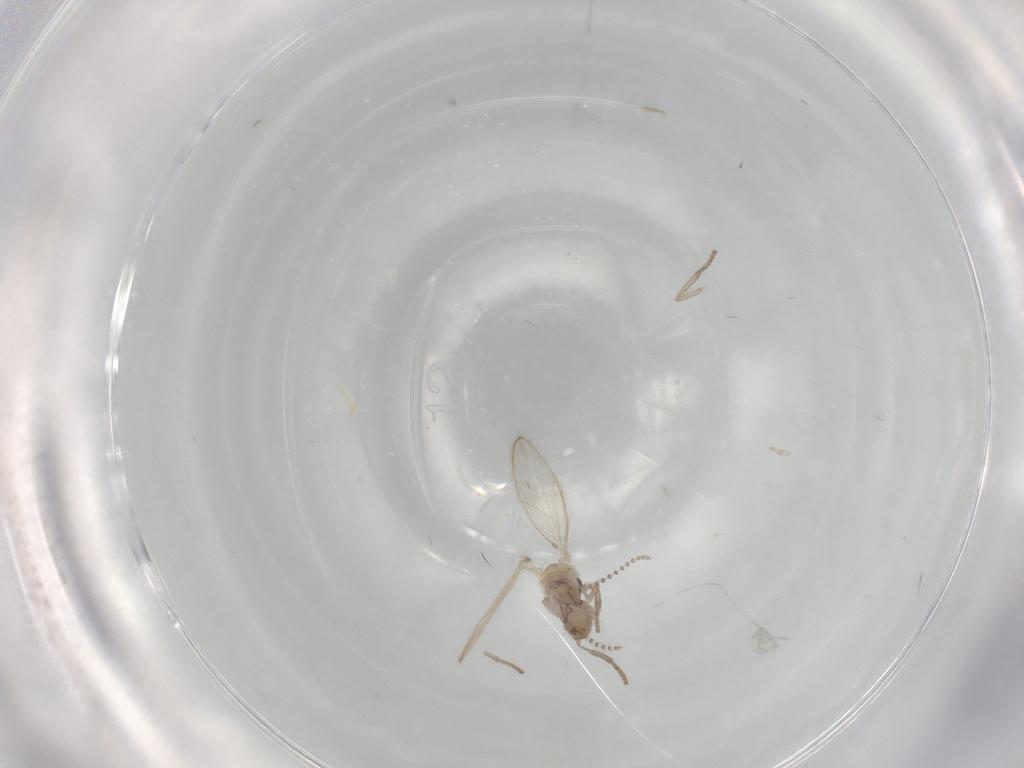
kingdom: Animalia
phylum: Arthropoda
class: Insecta
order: Diptera
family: Psychodidae
